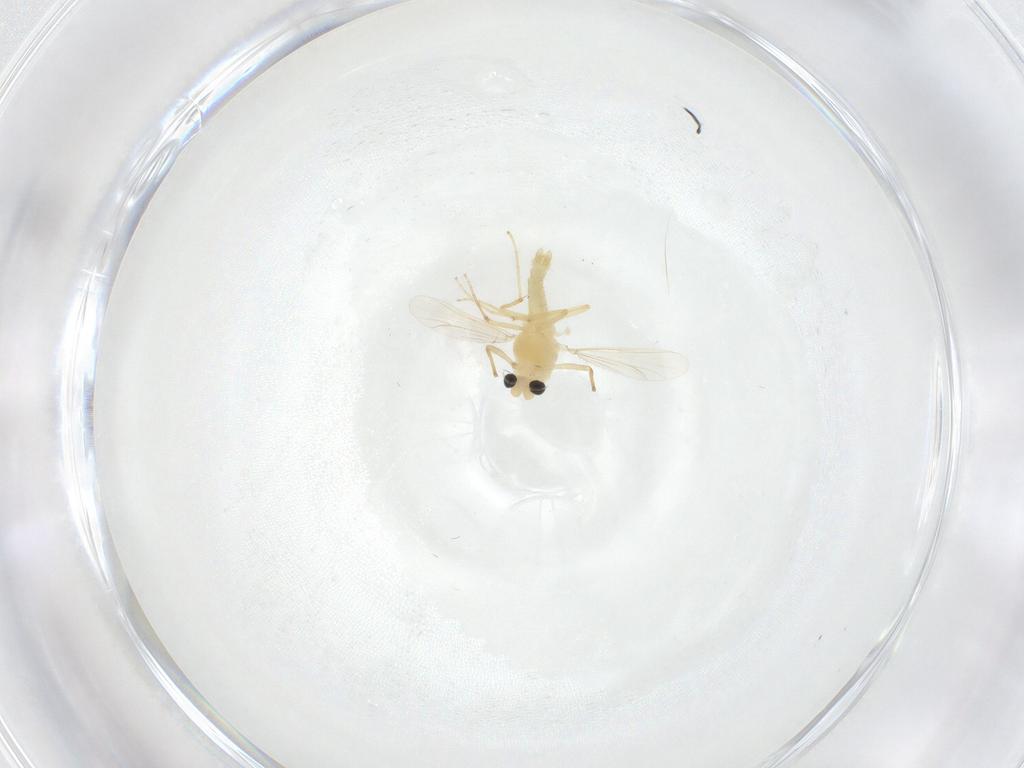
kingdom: Animalia
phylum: Arthropoda
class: Insecta
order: Diptera
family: Chironomidae
